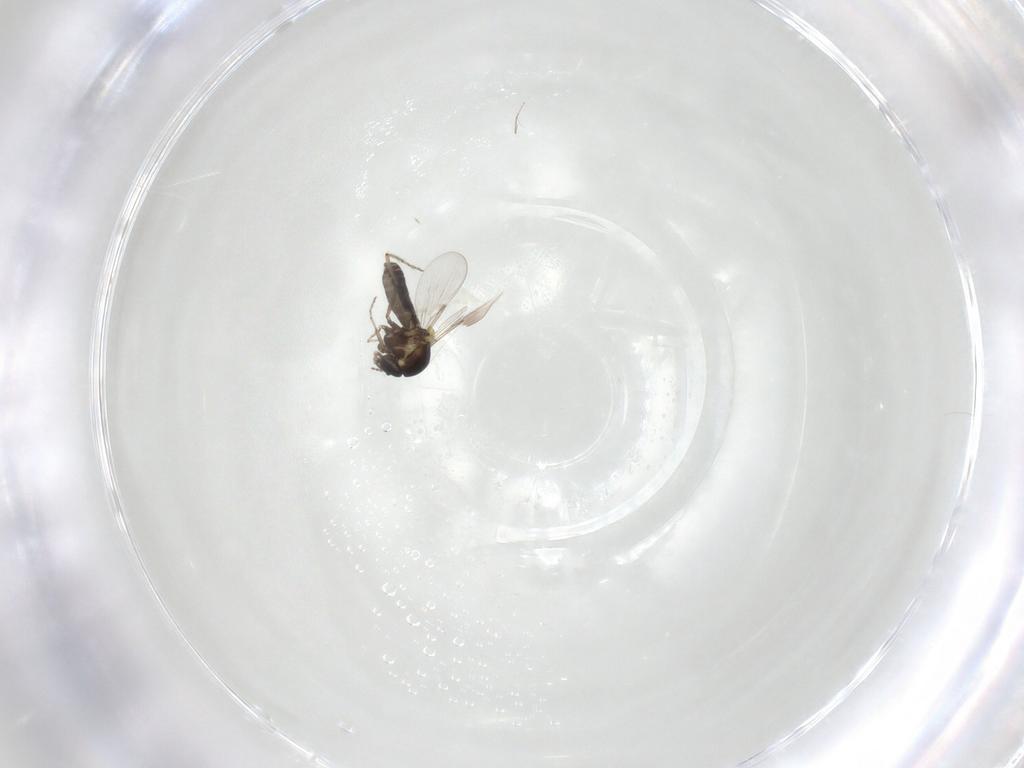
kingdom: Animalia
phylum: Arthropoda
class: Insecta
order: Diptera
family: Ceratopogonidae
